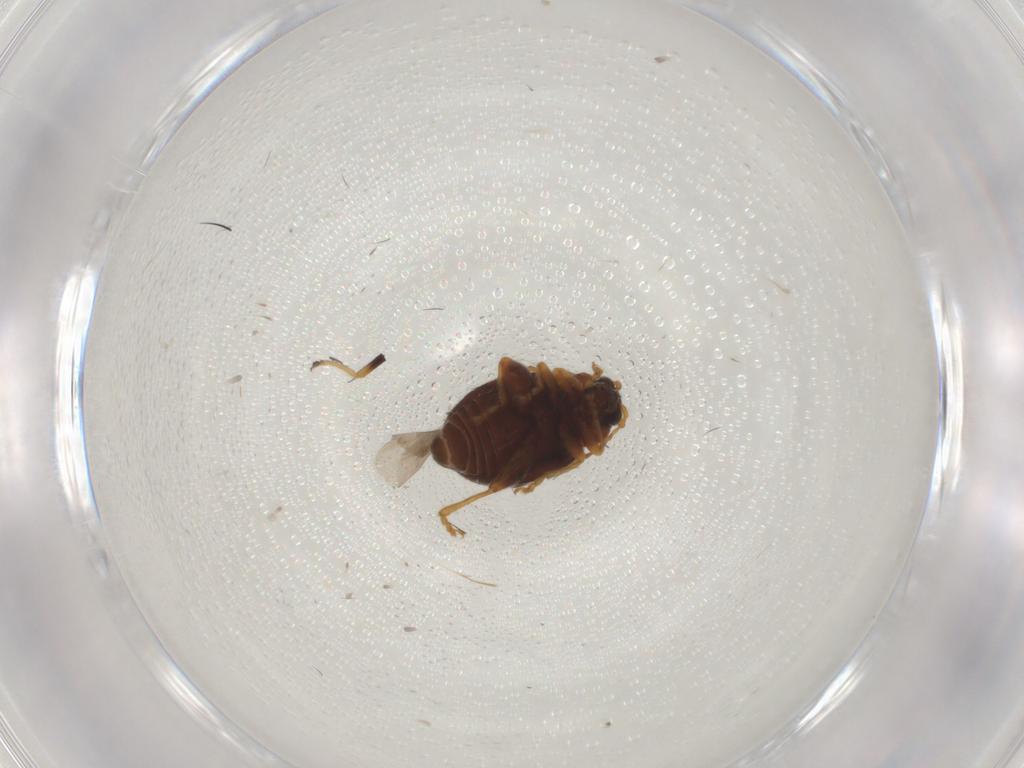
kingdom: Animalia
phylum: Arthropoda
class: Insecta
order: Coleoptera
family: Chrysomelidae
